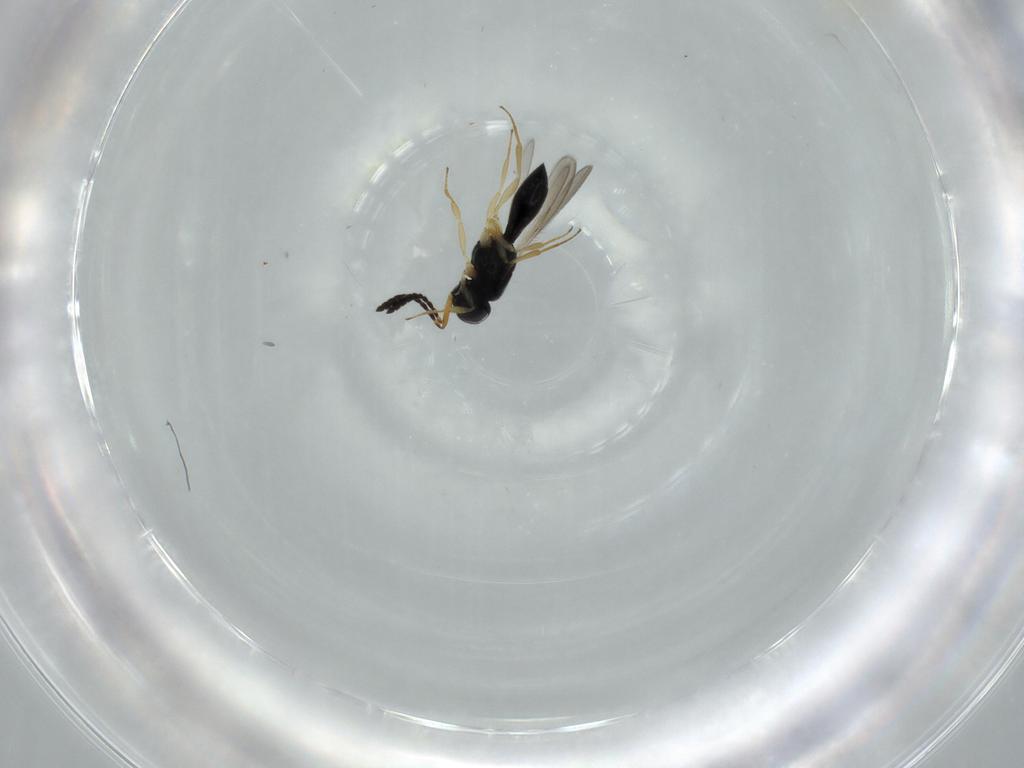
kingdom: Animalia
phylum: Arthropoda
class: Insecta
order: Hymenoptera
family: Scelionidae
